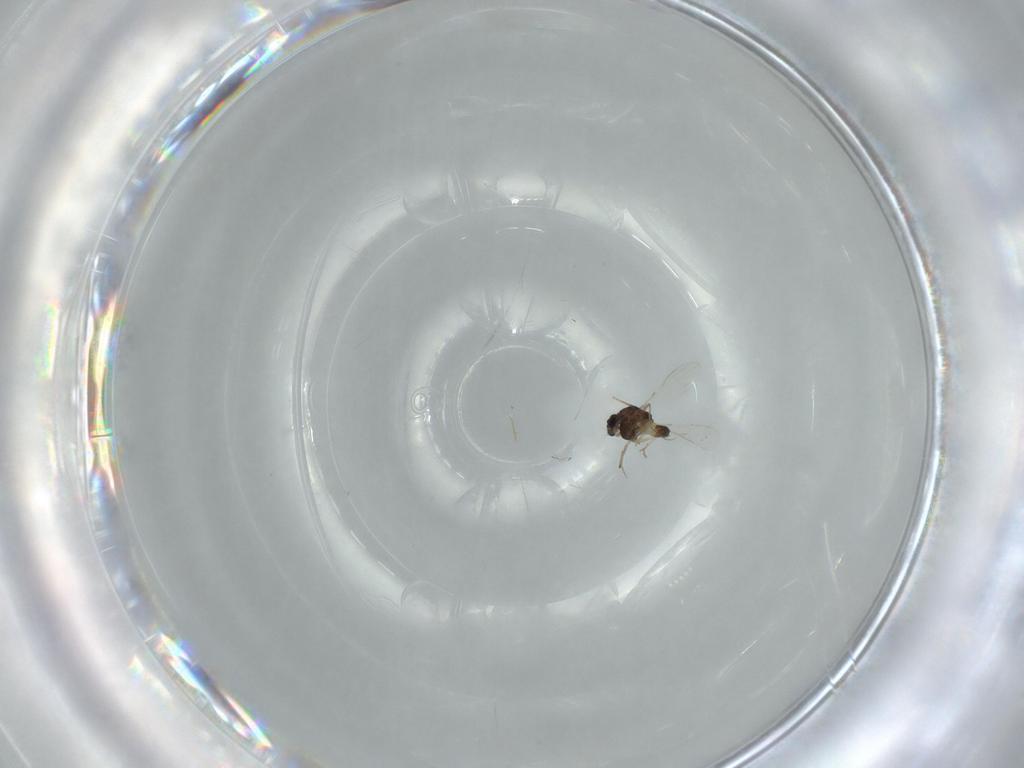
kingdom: Animalia
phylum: Arthropoda
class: Insecta
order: Diptera
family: Chironomidae
